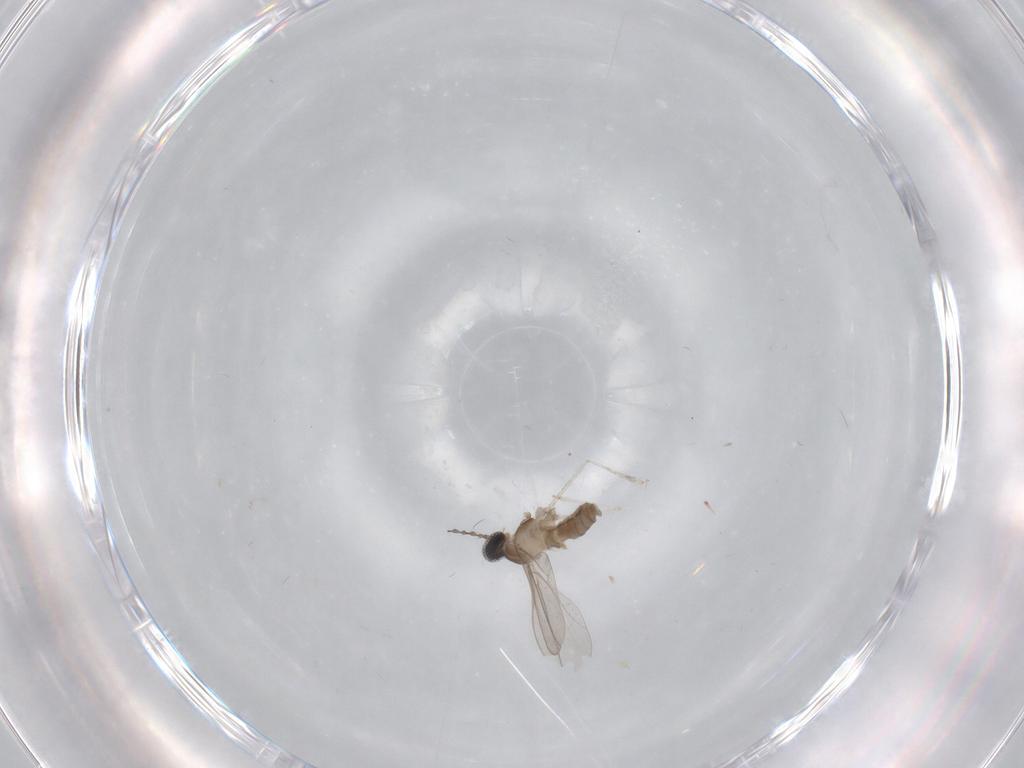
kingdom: Animalia
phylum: Arthropoda
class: Insecta
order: Diptera
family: Cecidomyiidae
